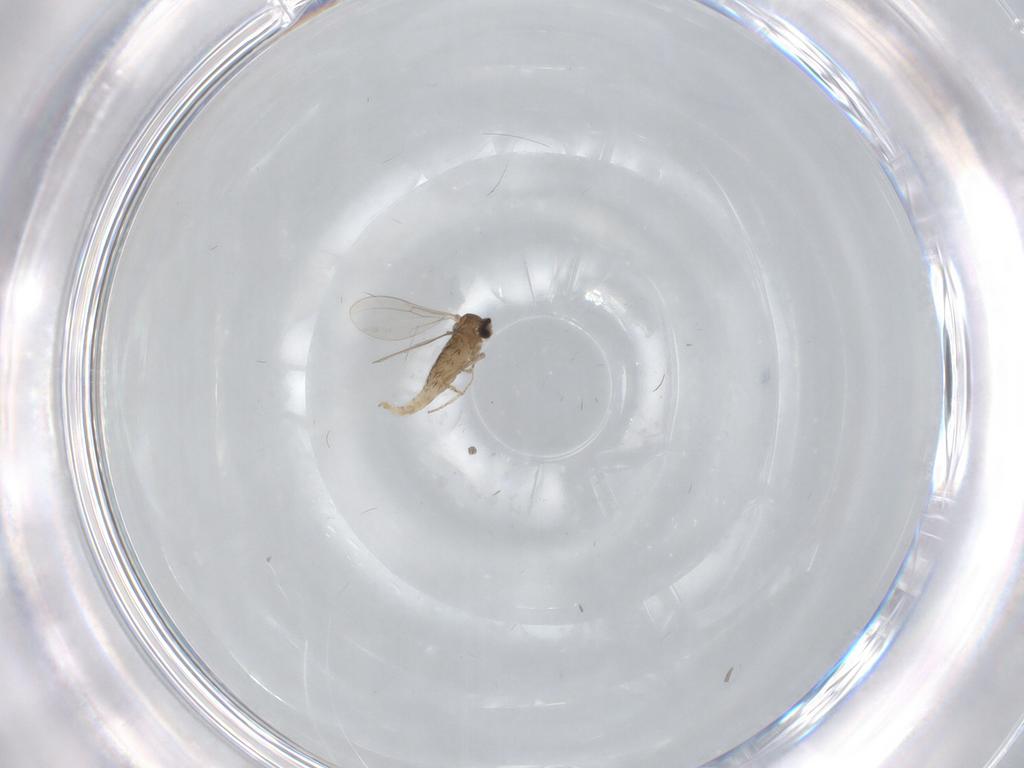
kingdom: Animalia
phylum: Arthropoda
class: Insecta
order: Diptera
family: Cecidomyiidae
